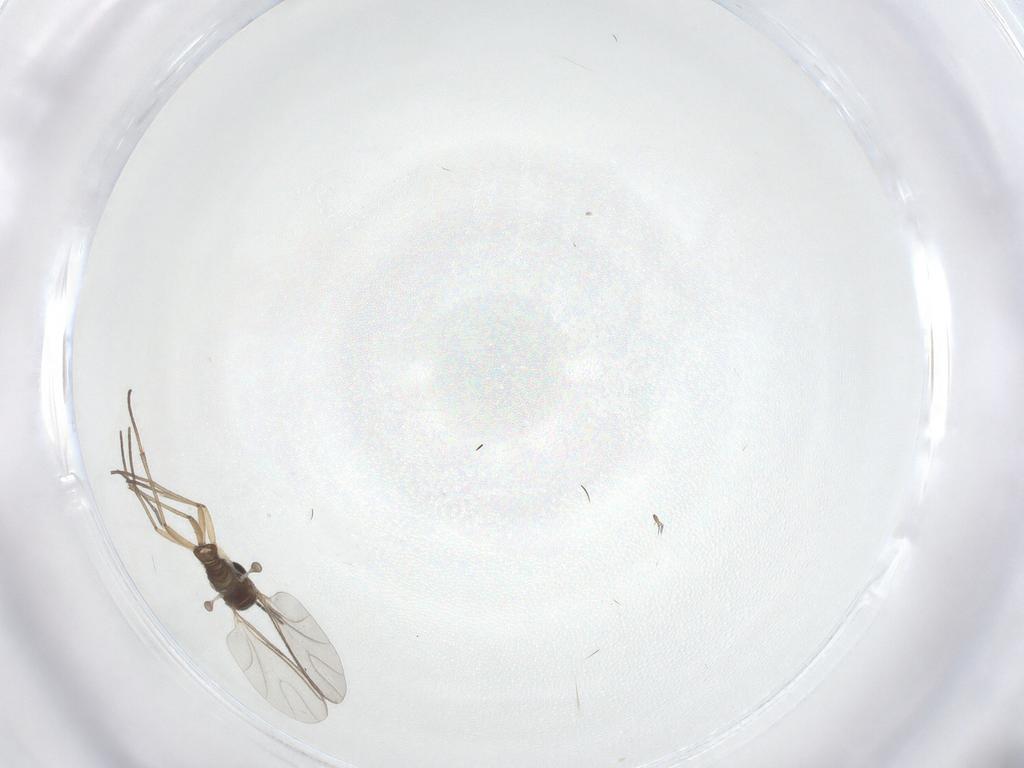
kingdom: Animalia
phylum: Arthropoda
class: Insecta
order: Diptera
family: Sciaridae
